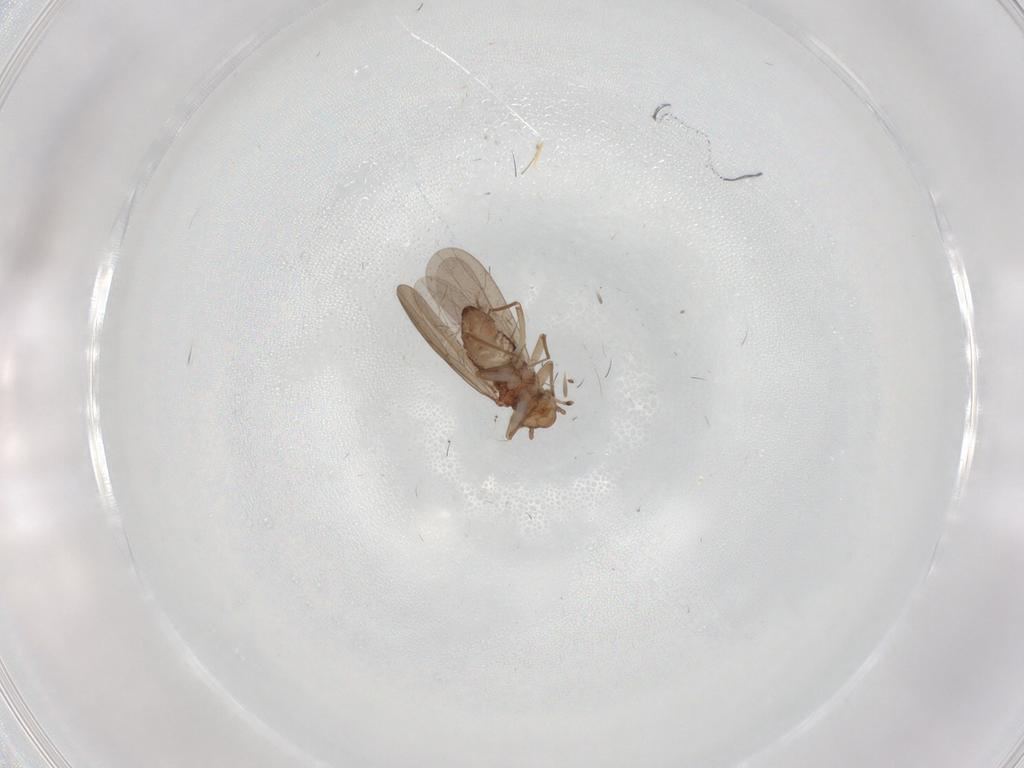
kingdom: Animalia
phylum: Arthropoda
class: Insecta
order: Psocodea
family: Lepidopsocidae
